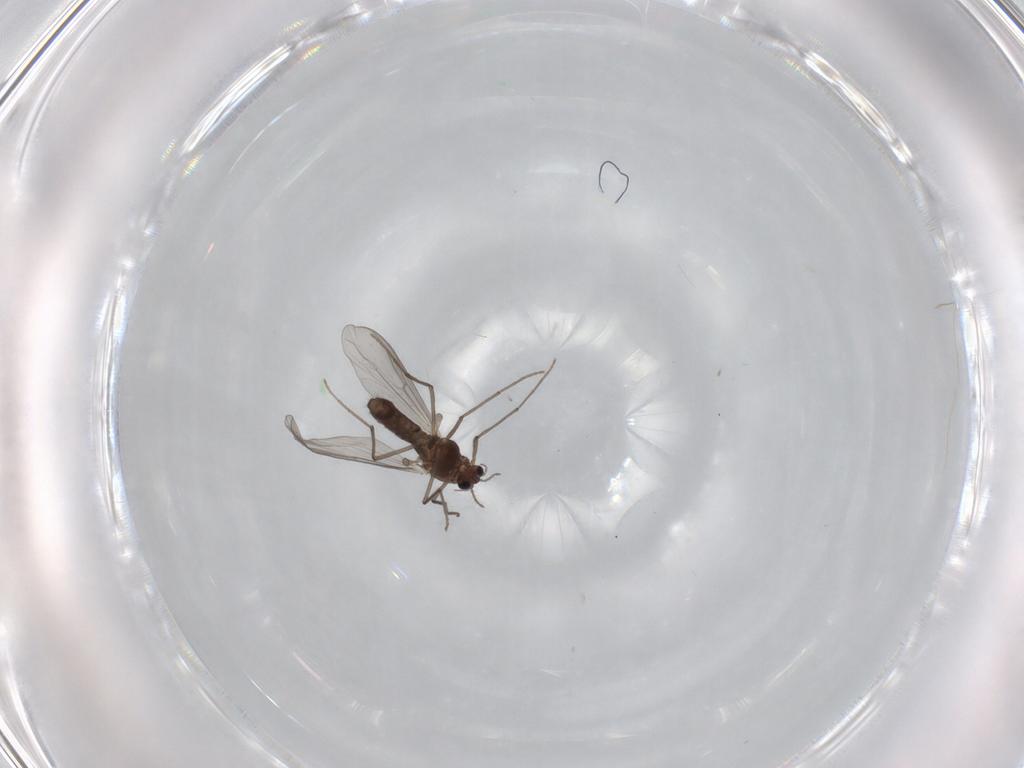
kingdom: Animalia
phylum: Arthropoda
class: Insecta
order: Diptera
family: Chironomidae
